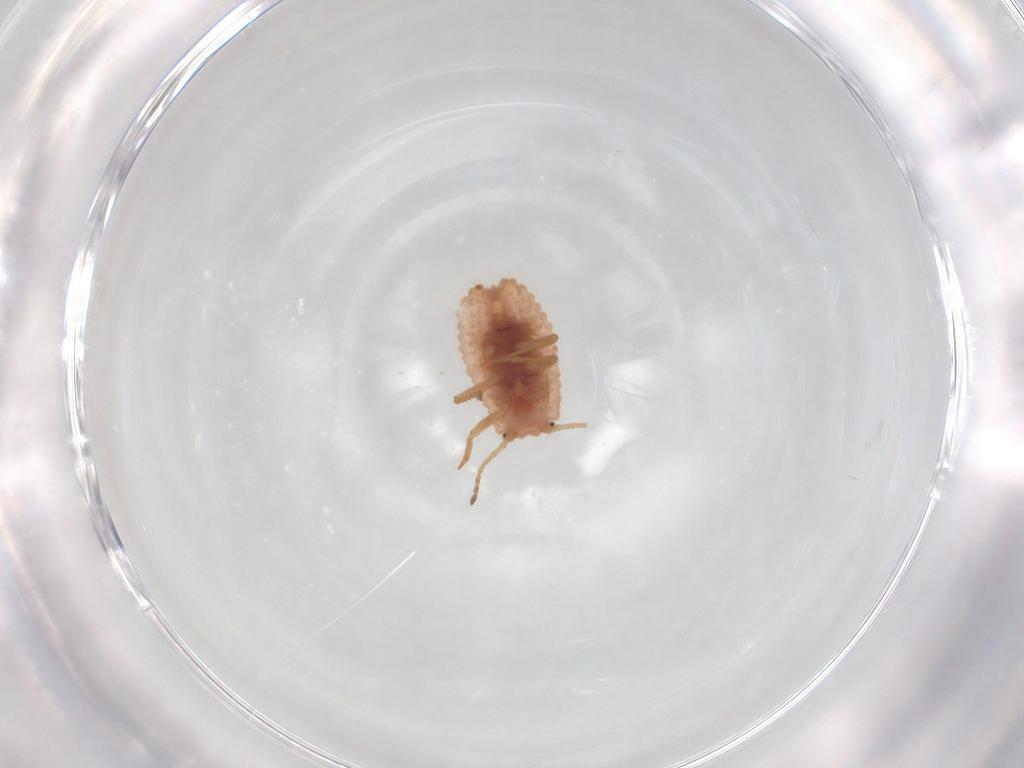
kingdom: Animalia
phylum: Arthropoda
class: Insecta
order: Hemiptera
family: Coccoidea_incertae_sedis
